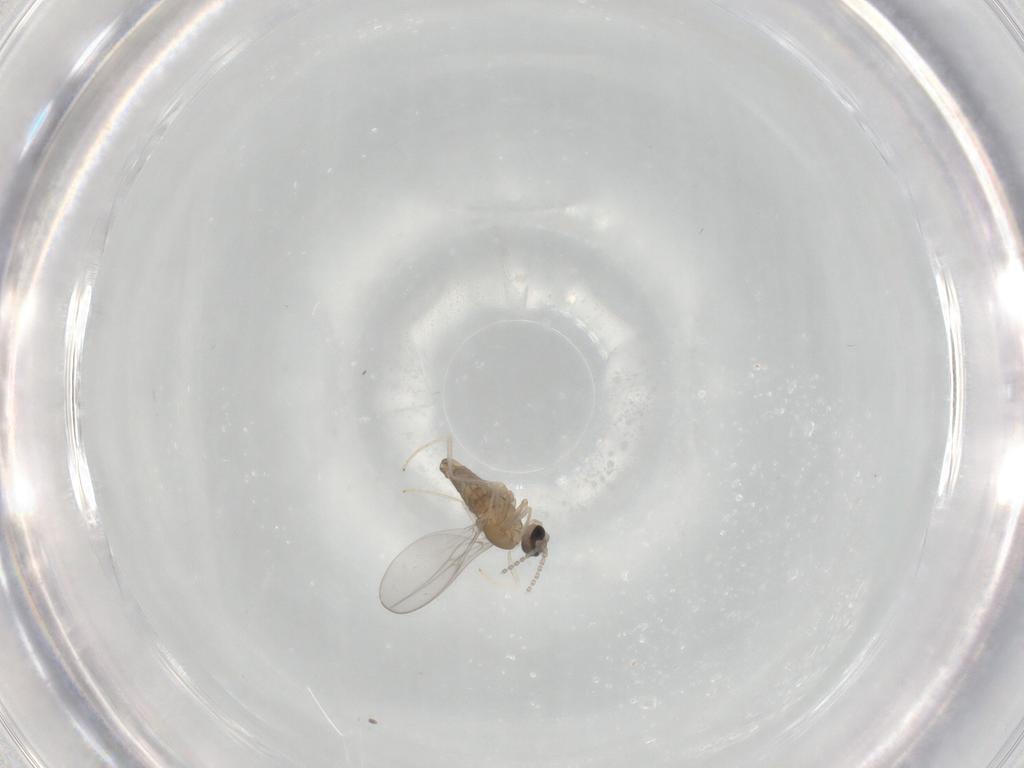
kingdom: Animalia
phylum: Arthropoda
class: Insecta
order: Diptera
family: Cecidomyiidae
